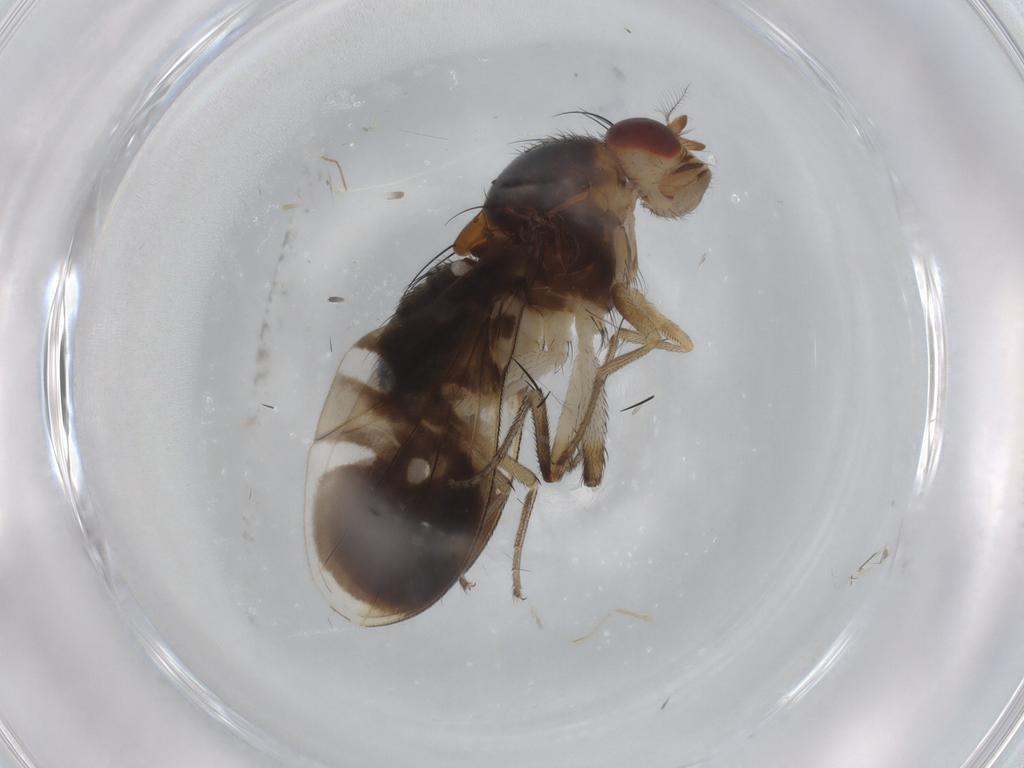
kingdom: Animalia
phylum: Arthropoda
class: Insecta
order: Diptera
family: Lauxaniidae
